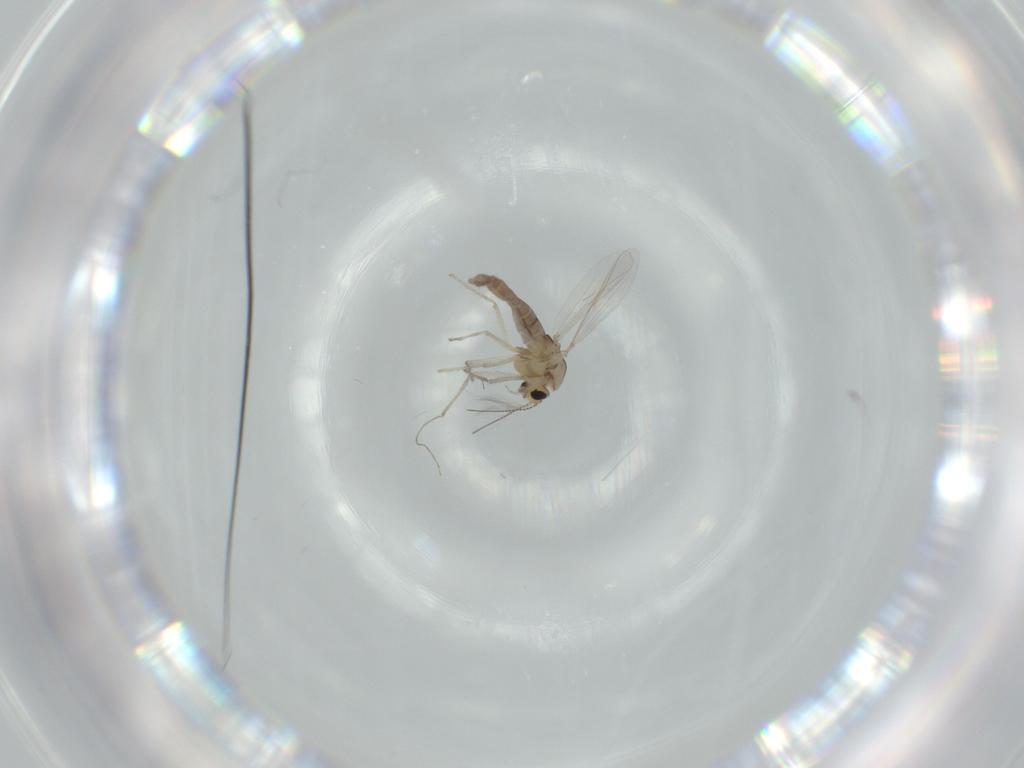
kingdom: Animalia
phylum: Arthropoda
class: Insecta
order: Diptera
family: Chironomidae
